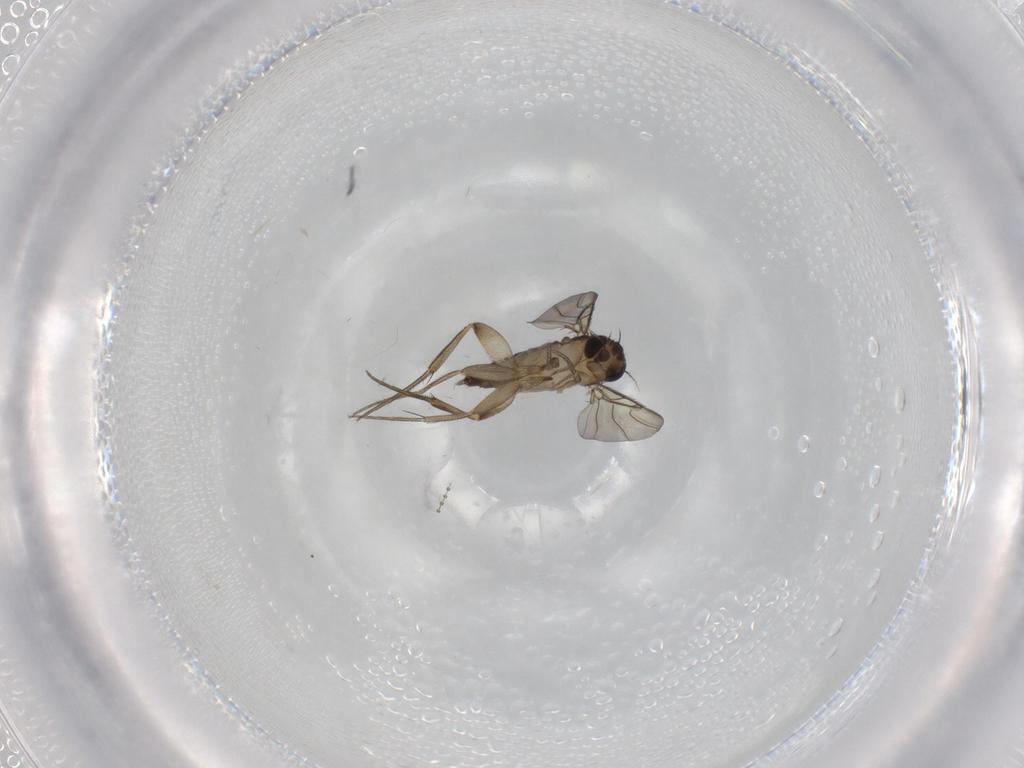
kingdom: Animalia
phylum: Arthropoda
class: Insecta
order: Diptera
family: Phoridae
